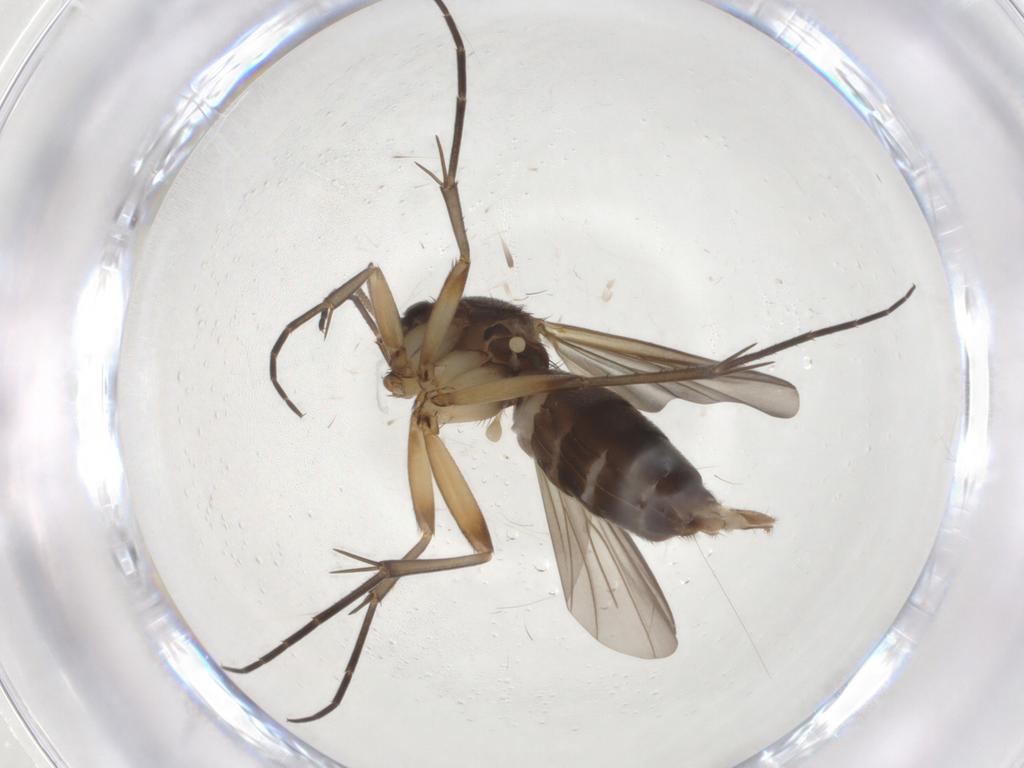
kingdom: Animalia
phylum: Arthropoda
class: Insecta
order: Diptera
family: Mycetophilidae
